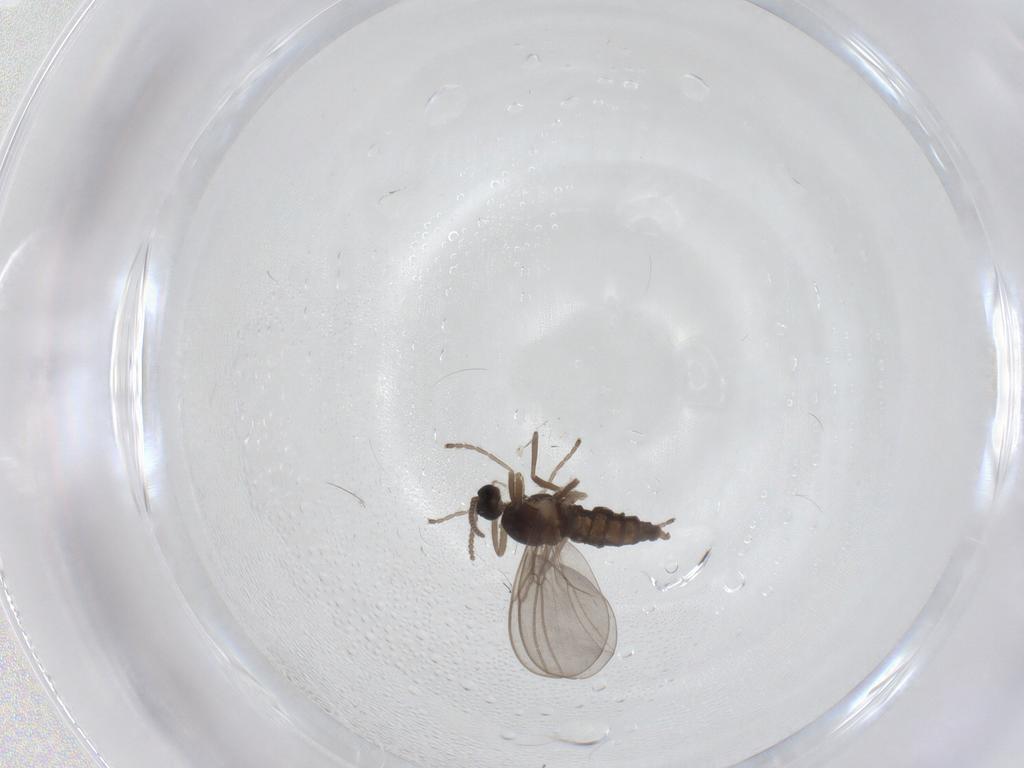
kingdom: Animalia
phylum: Arthropoda
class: Insecta
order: Diptera
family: Cecidomyiidae
